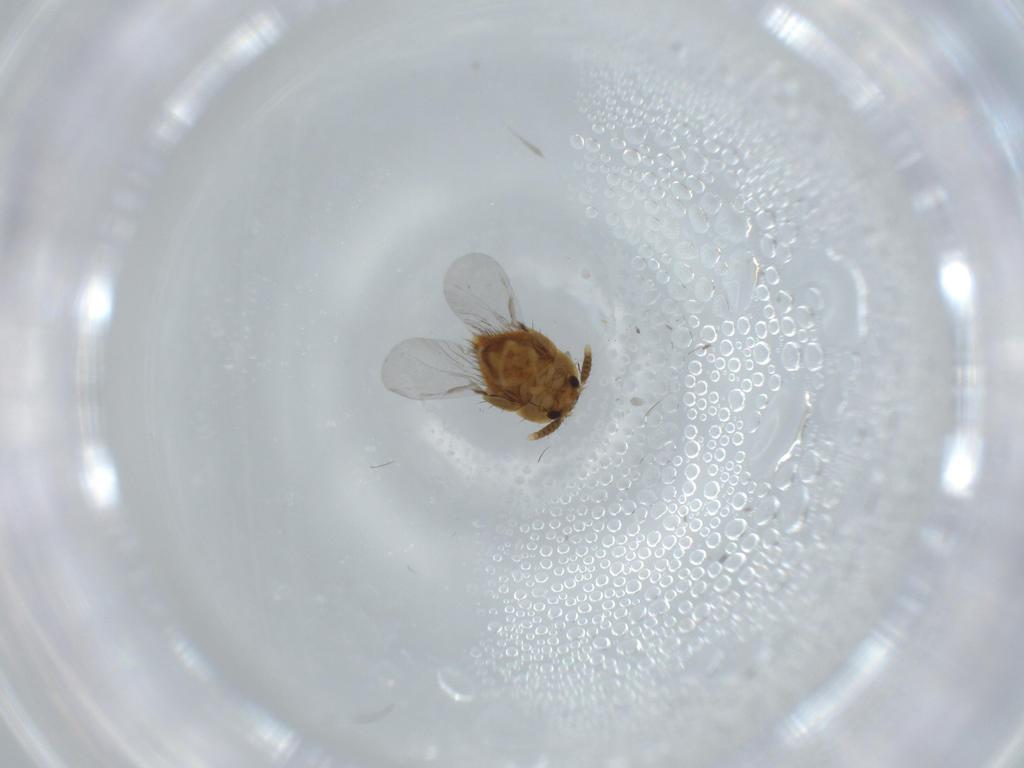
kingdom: Animalia
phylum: Arthropoda
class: Insecta
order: Coleoptera
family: Staphylinidae
